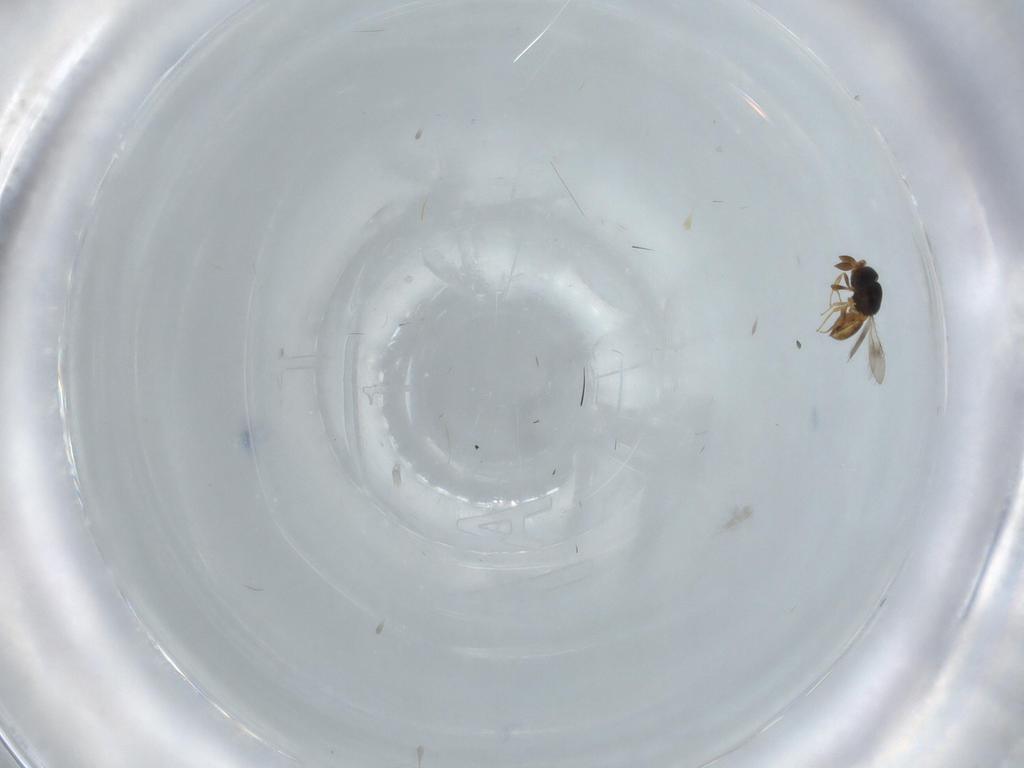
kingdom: Animalia
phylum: Arthropoda
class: Insecta
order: Hymenoptera
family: Scelionidae
